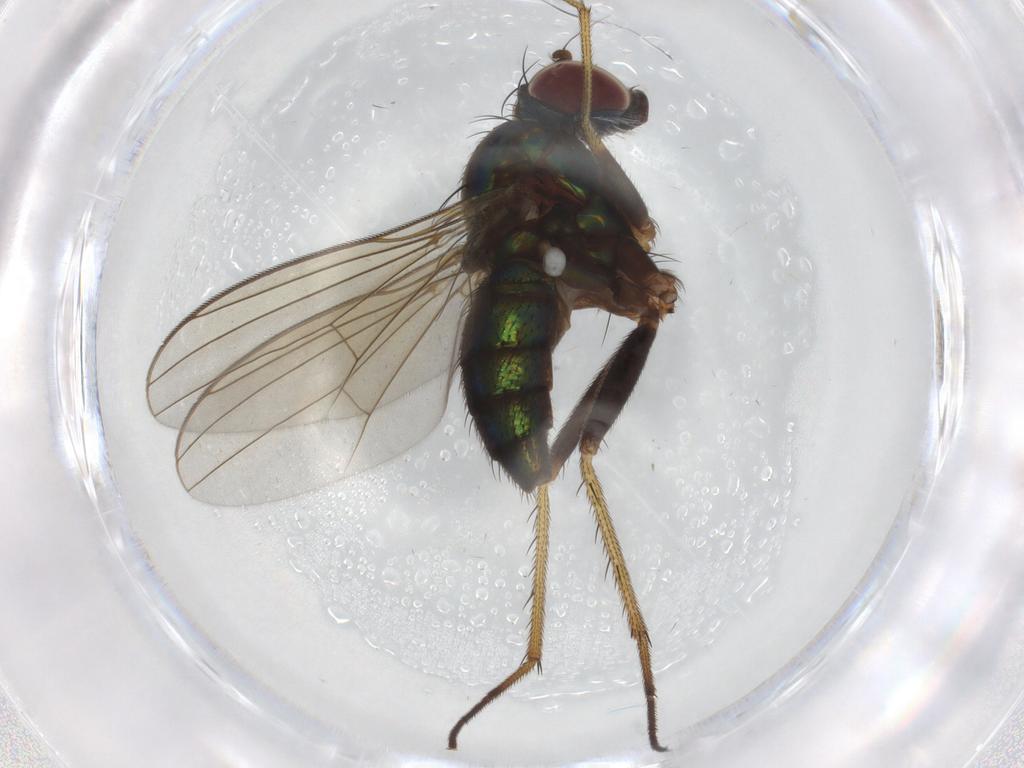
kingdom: Animalia
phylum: Arthropoda
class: Insecta
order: Diptera
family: Dolichopodidae
